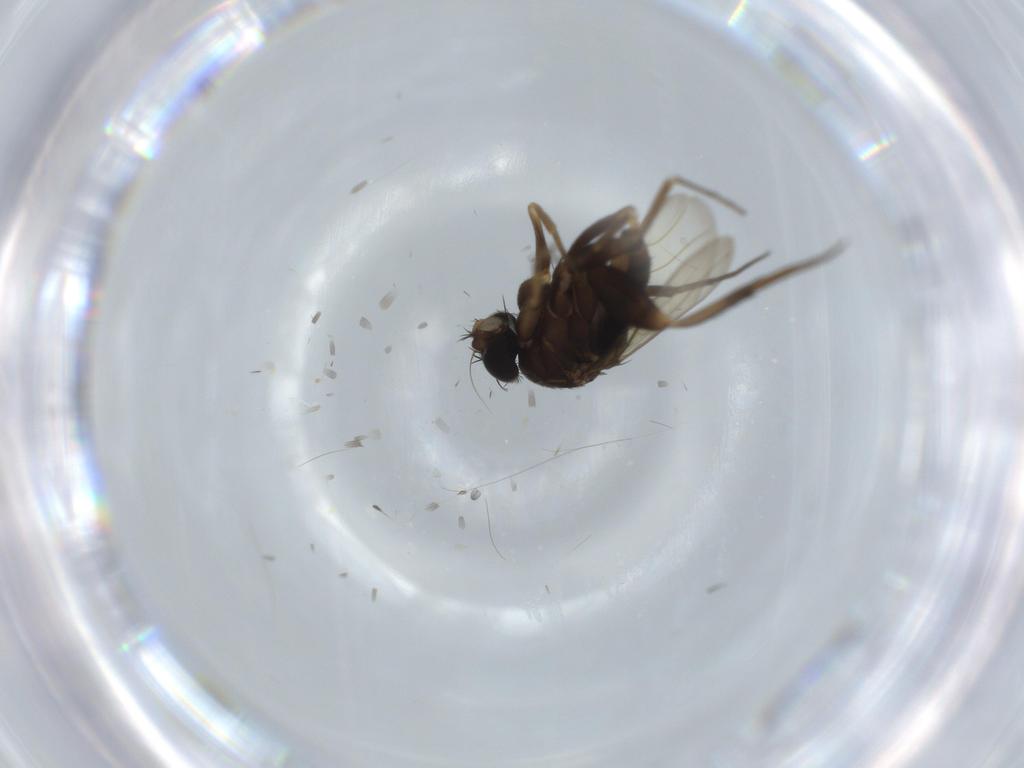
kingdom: Animalia
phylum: Arthropoda
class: Insecta
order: Diptera
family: Phoridae
